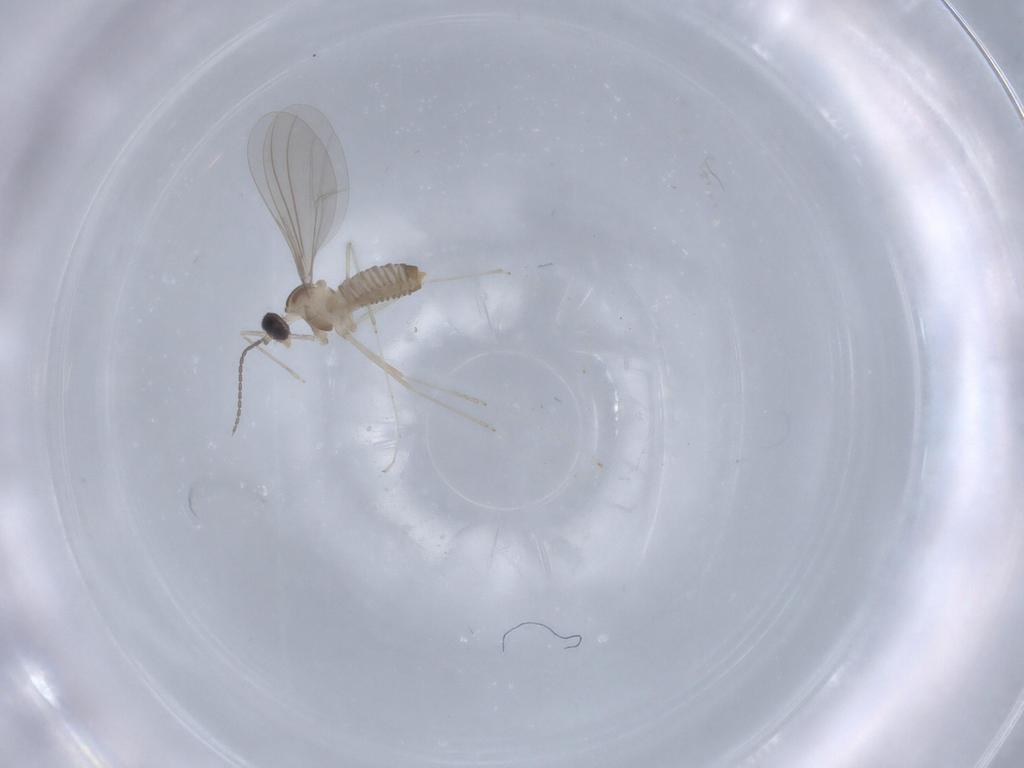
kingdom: Animalia
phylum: Arthropoda
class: Insecta
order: Diptera
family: Cecidomyiidae
